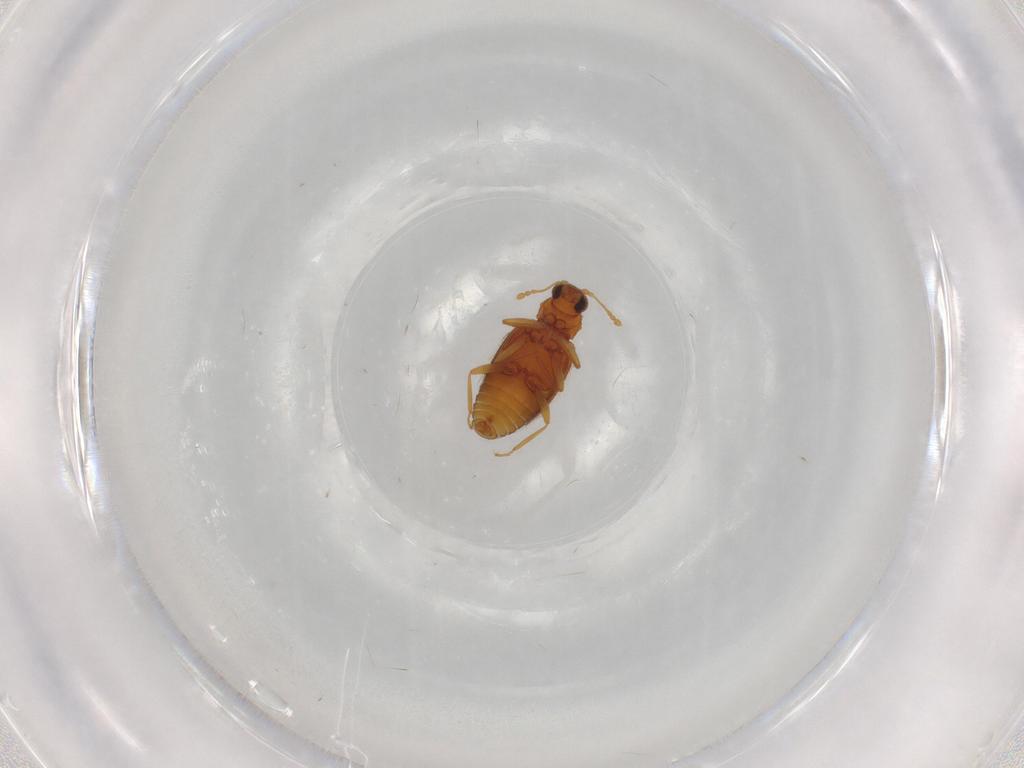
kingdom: Animalia
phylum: Arthropoda
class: Insecta
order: Coleoptera
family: Latridiidae
